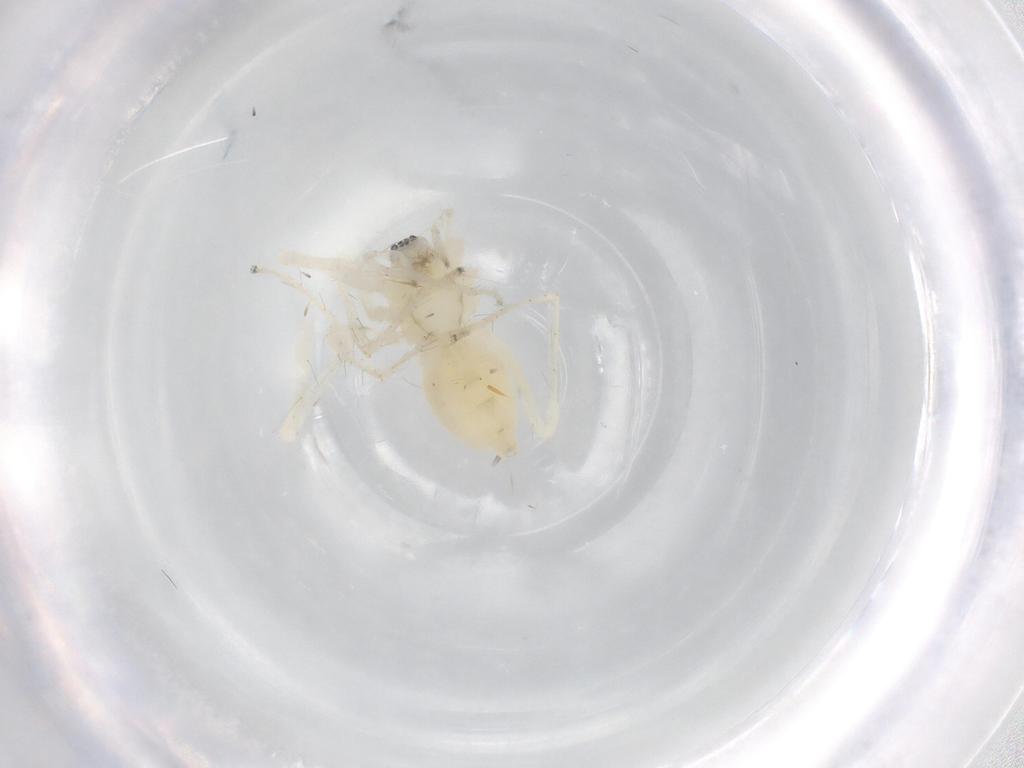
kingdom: Animalia
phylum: Arthropoda
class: Arachnida
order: Araneae
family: Anyphaenidae
